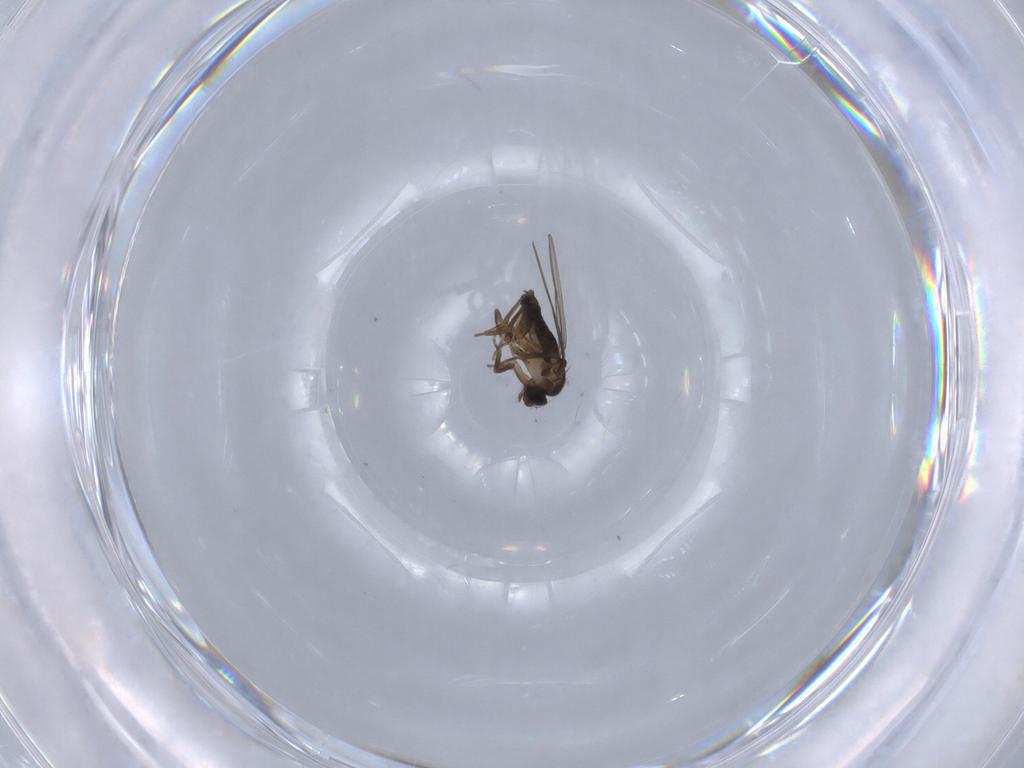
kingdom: Animalia
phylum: Arthropoda
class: Insecta
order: Diptera
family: Phoridae
